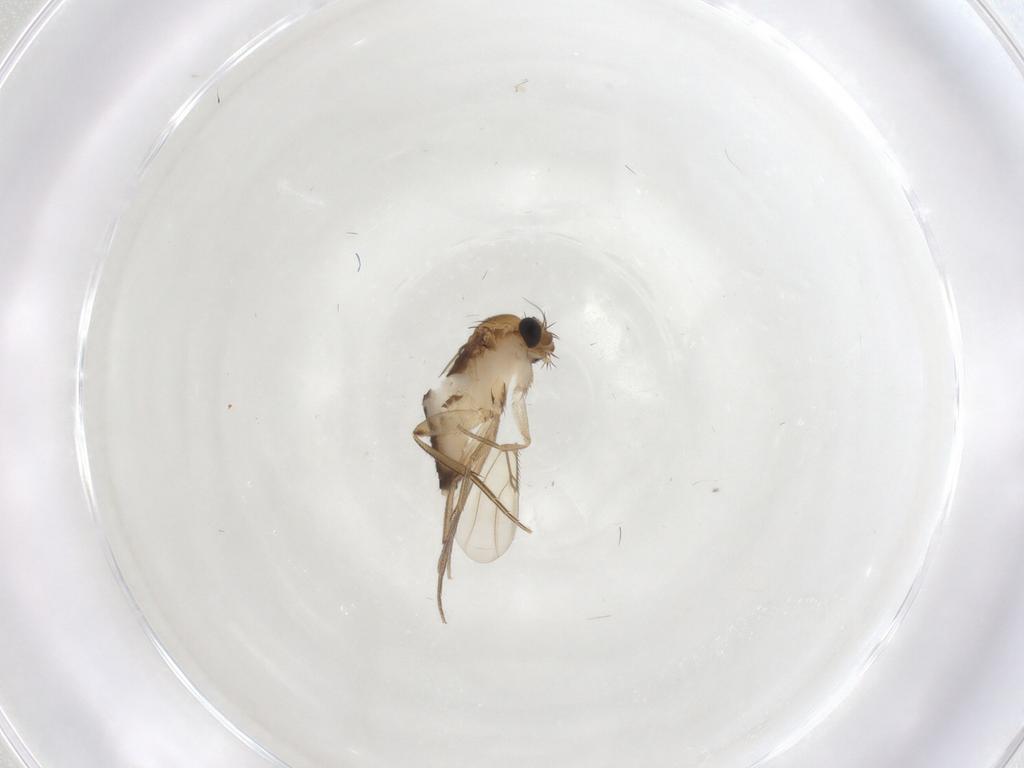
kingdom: Animalia
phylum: Arthropoda
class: Insecta
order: Diptera
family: Phoridae
